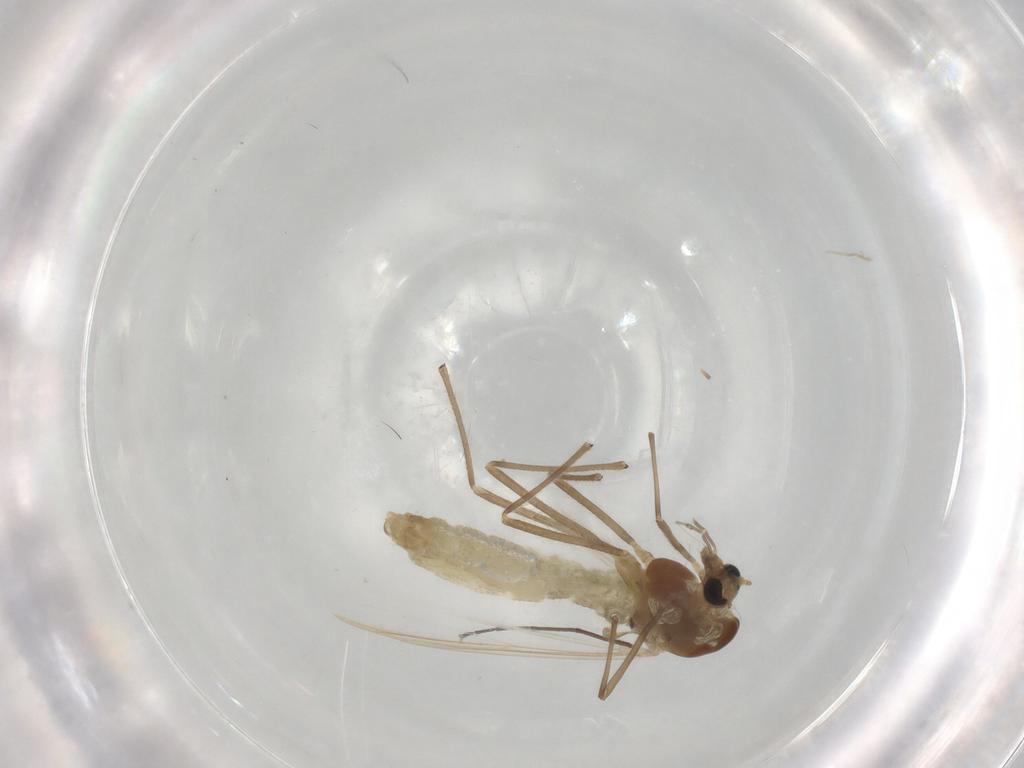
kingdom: Animalia
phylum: Arthropoda
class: Insecta
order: Diptera
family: Chironomidae
